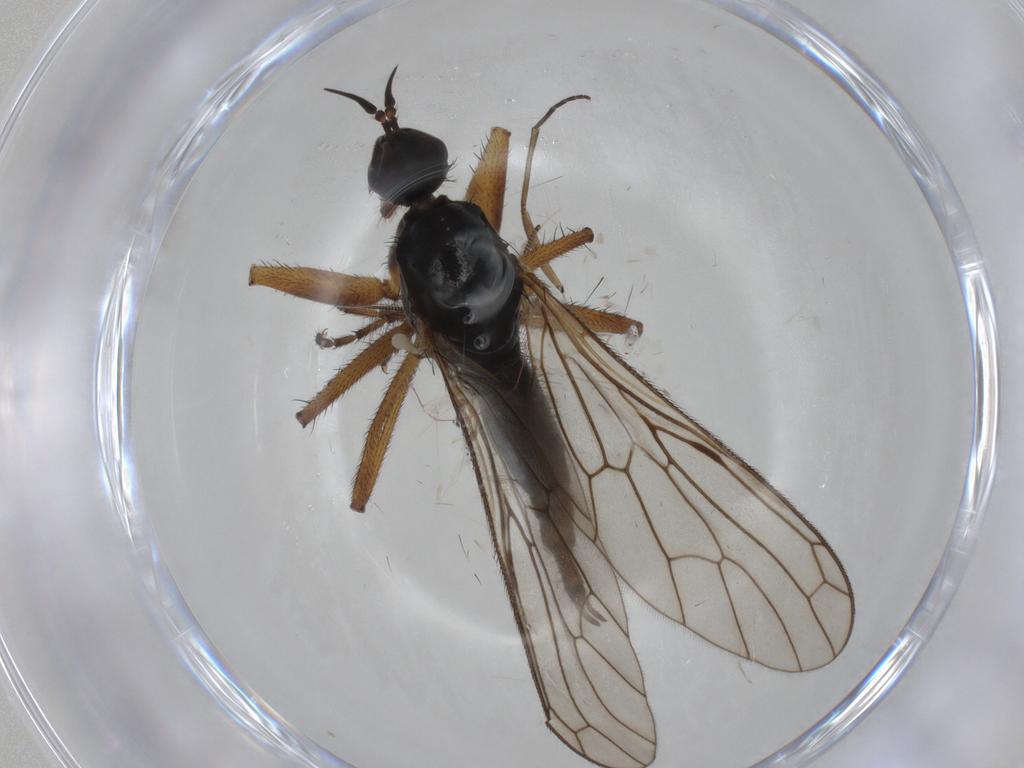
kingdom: Animalia
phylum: Arthropoda
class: Insecta
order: Diptera
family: Empididae
